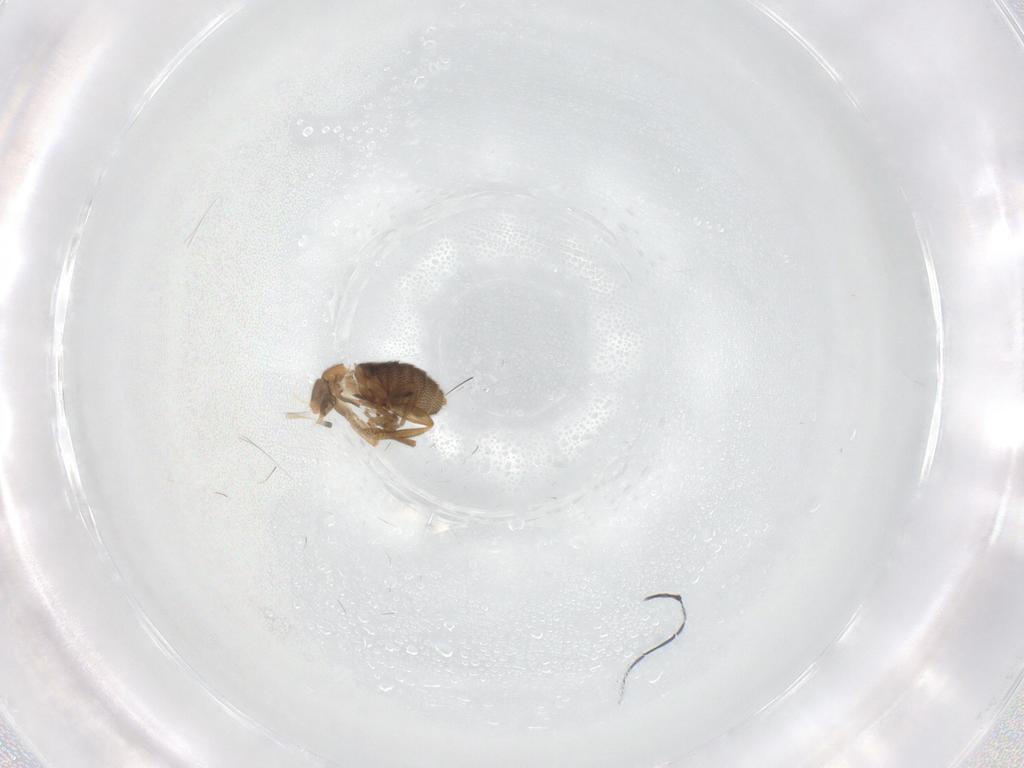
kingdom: Animalia
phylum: Arthropoda
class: Insecta
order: Diptera
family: Phoridae
